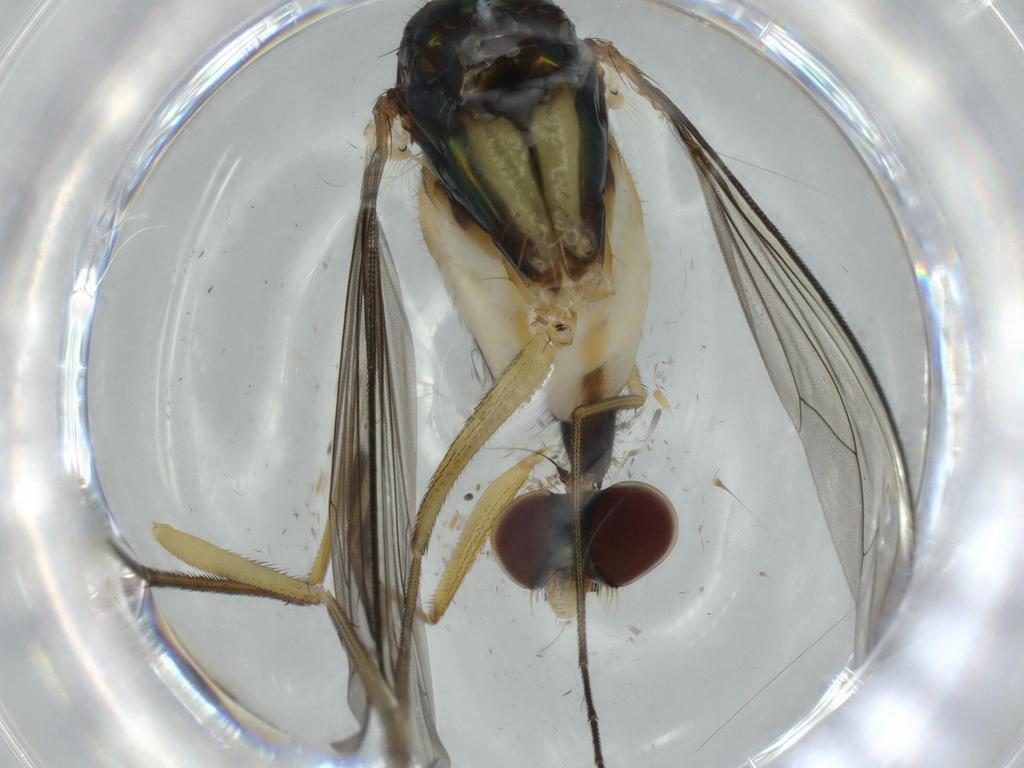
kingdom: Animalia
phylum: Arthropoda
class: Insecta
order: Diptera
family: Dolichopodidae
